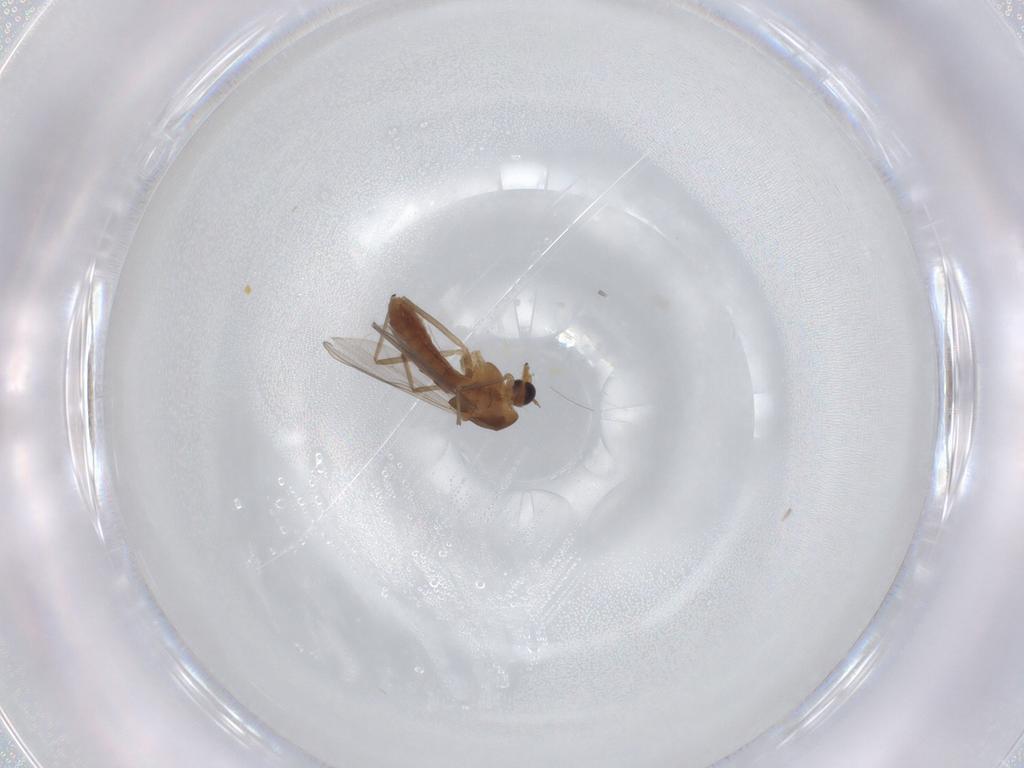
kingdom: Animalia
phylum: Arthropoda
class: Insecta
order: Diptera
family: Chironomidae
